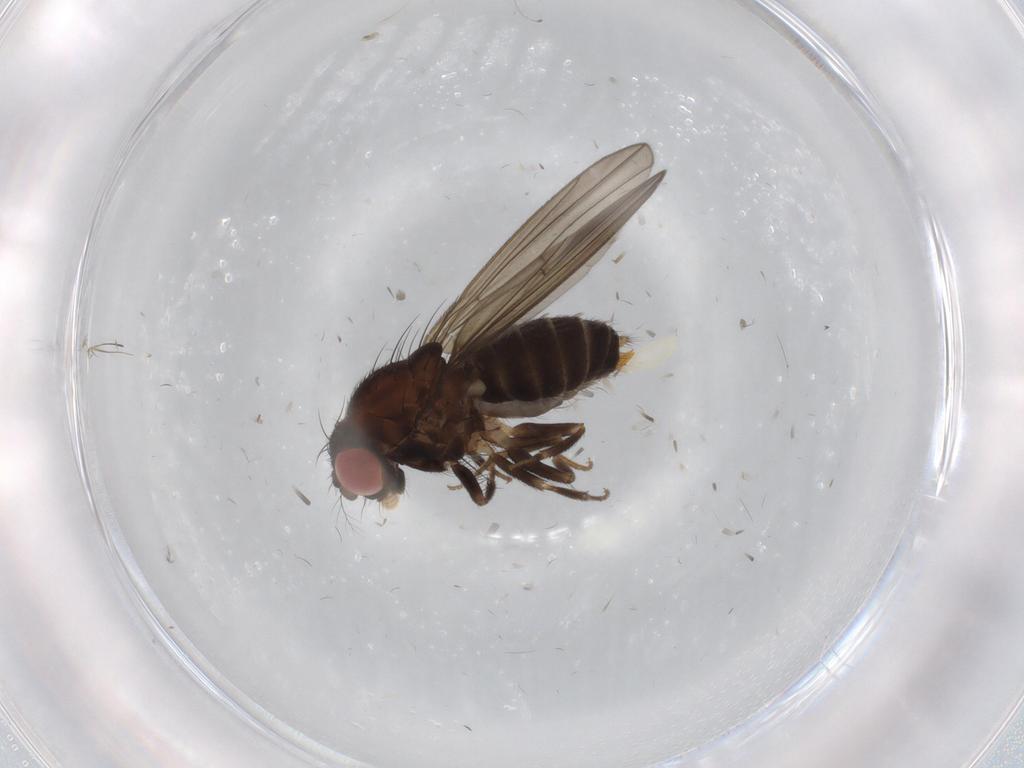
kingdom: Animalia
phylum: Arthropoda
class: Insecta
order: Diptera
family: Drosophilidae
